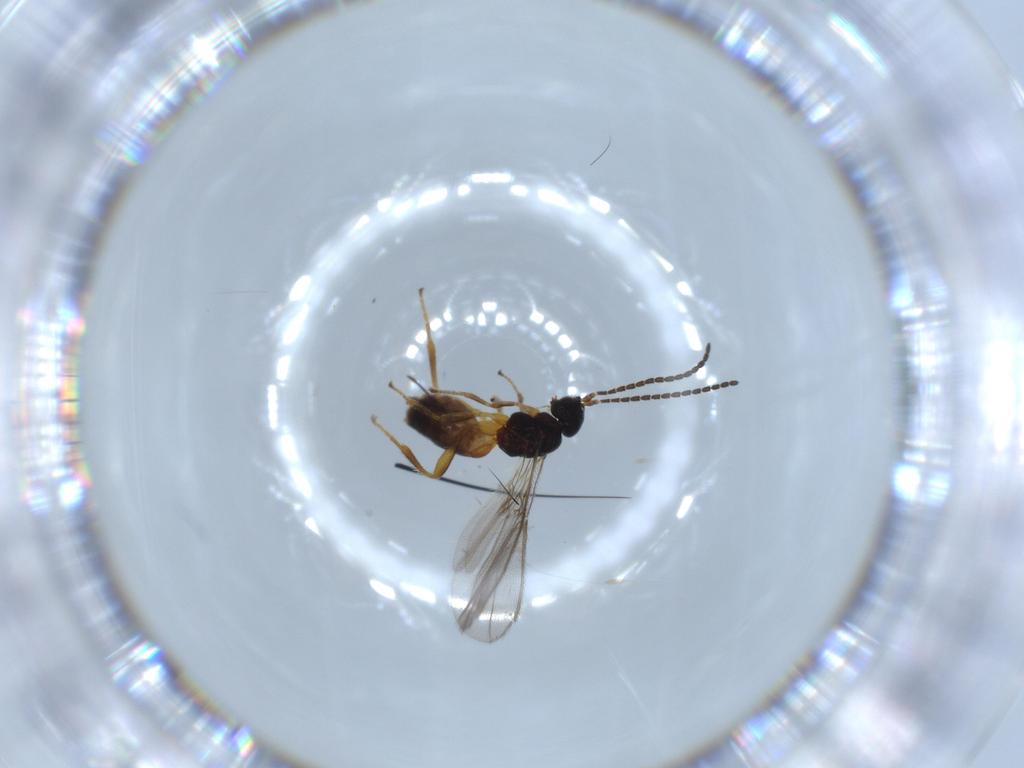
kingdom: Animalia
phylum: Arthropoda
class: Insecta
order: Hymenoptera
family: Braconidae
